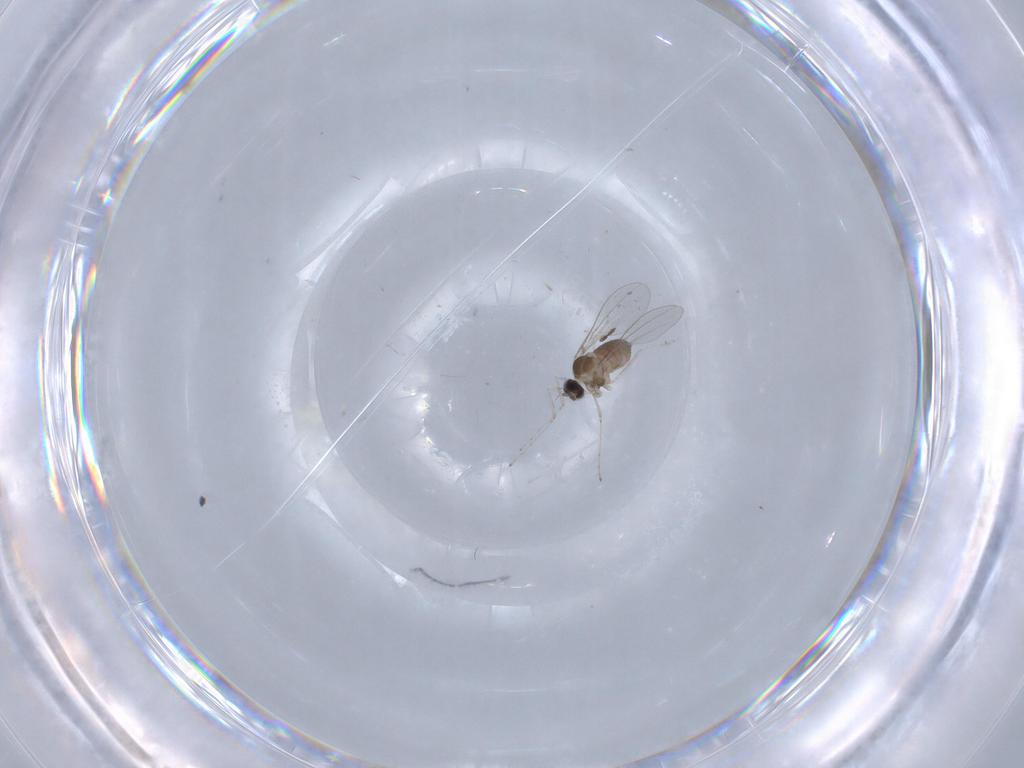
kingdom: Animalia
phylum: Arthropoda
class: Insecta
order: Diptera
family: Cecidomyiidae
